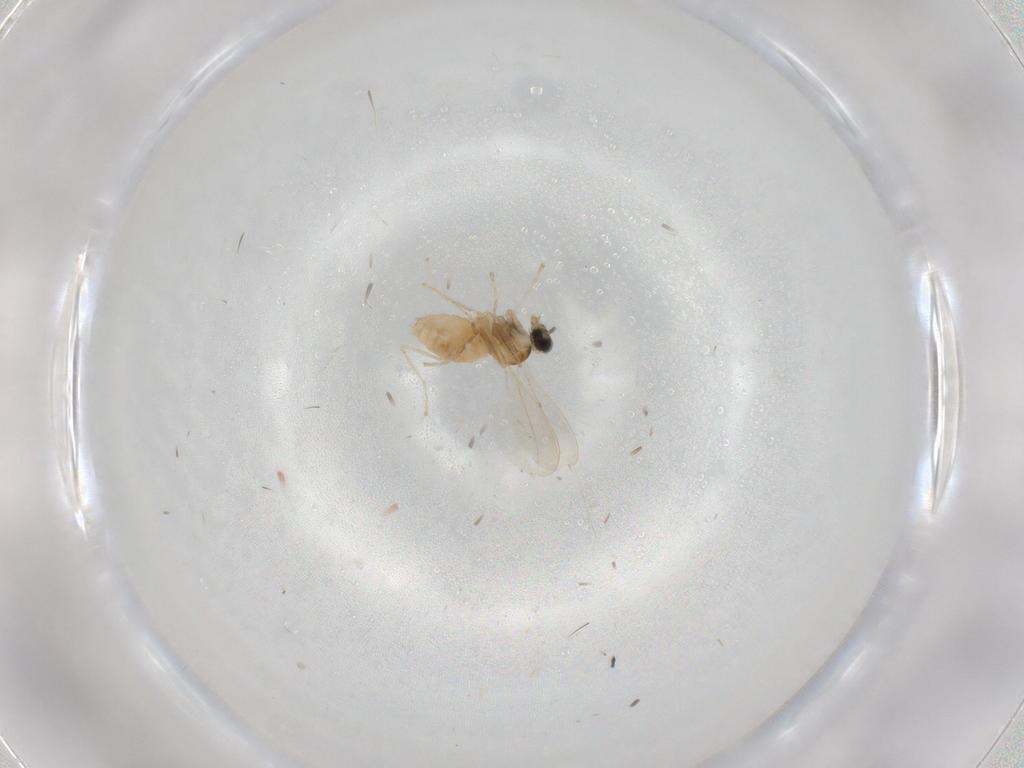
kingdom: Animalia
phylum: Arthropoda
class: Insecta
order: Diptera
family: Cecidomyiidae
